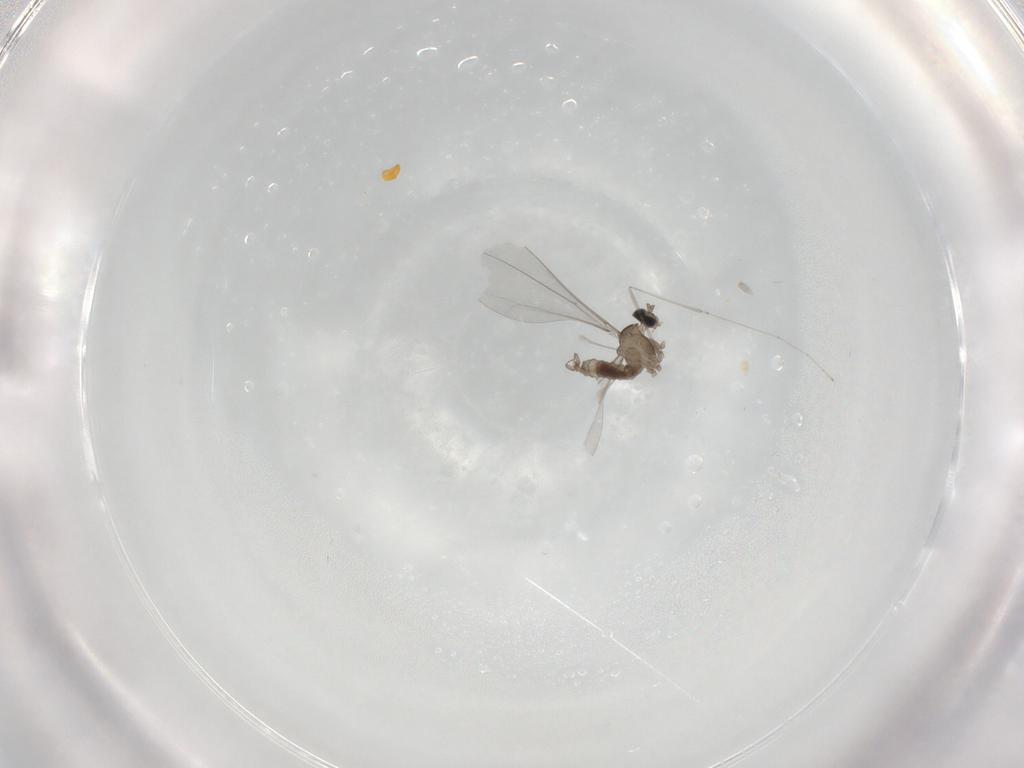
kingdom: Animalia
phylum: Arthropoda
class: Insecta
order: Diptera
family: Cecidomyiidae
